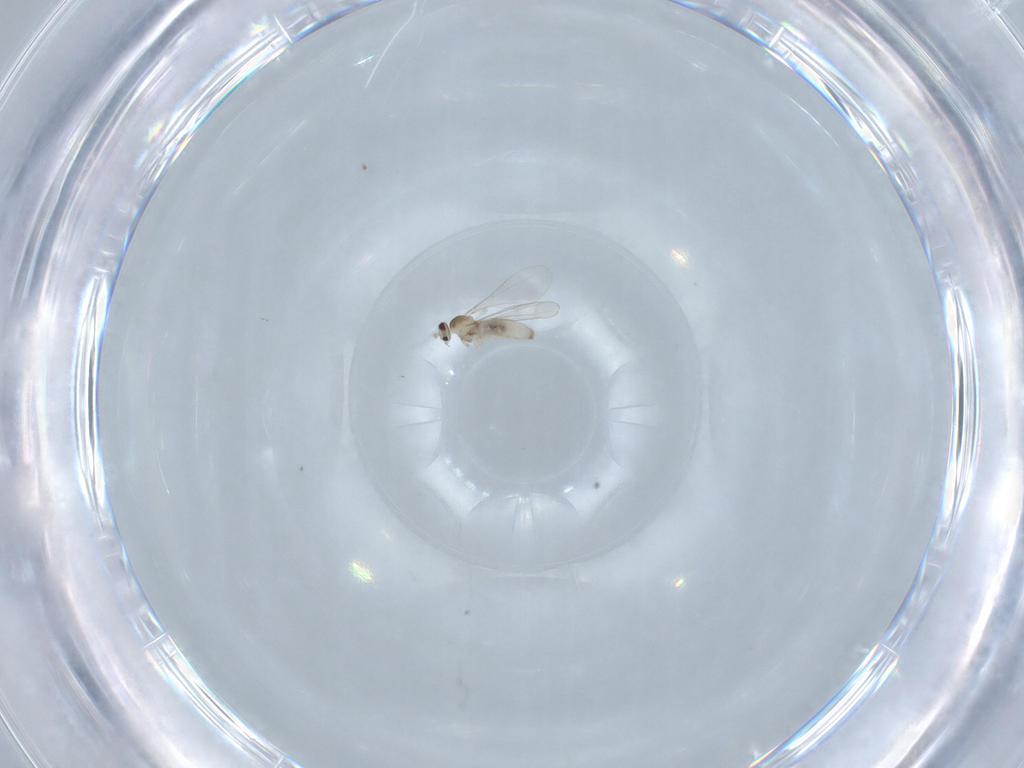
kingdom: Animalia
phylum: Arthropoda
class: Insecta
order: Diptera
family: Cecidomyiidae
